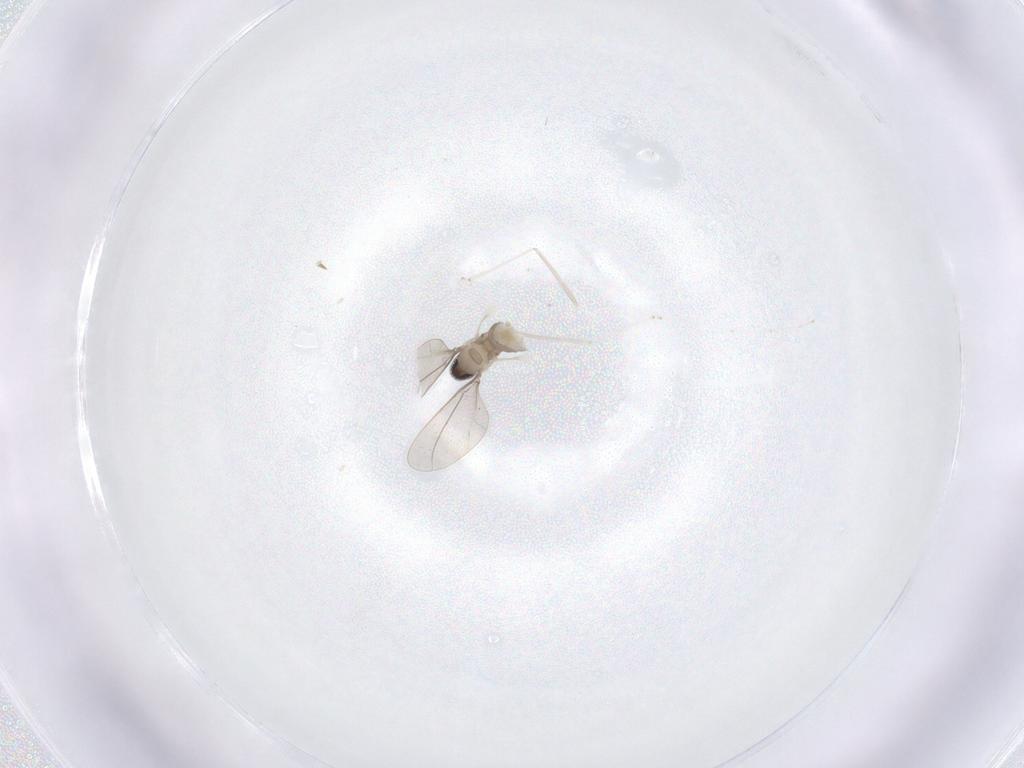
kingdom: Animalia
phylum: Arthropoda
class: Insecta
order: Diptera
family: Cecidomyiidae
